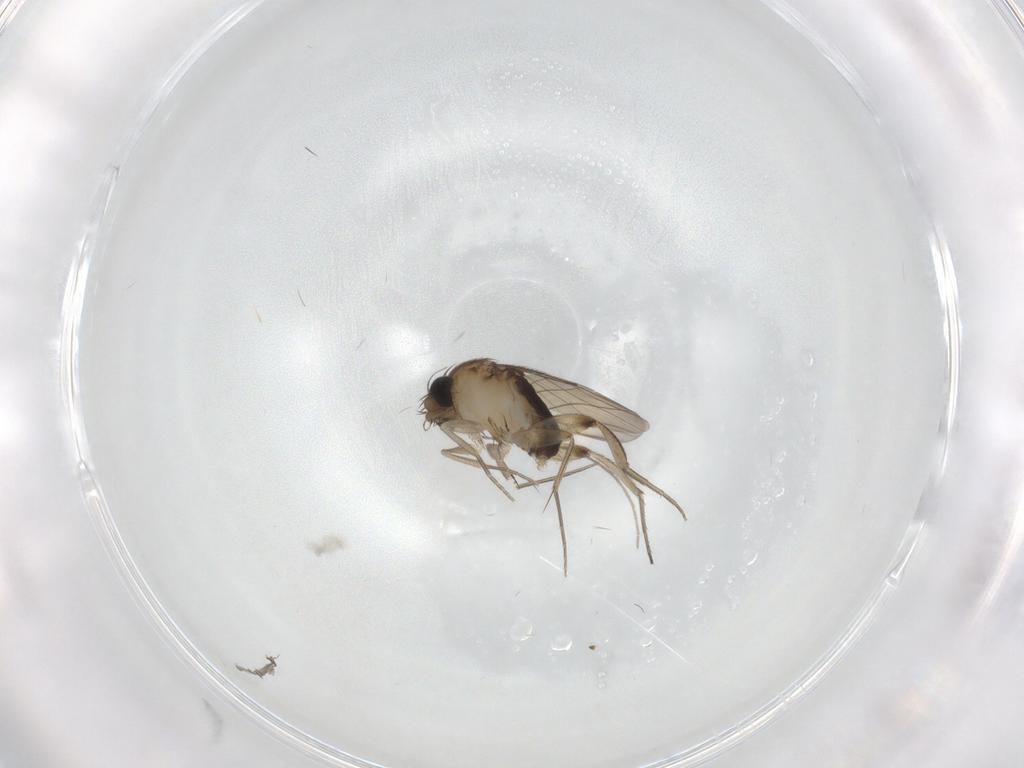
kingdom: Animalia
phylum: Arthropoda
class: Insecta
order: Diptera
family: Phoridae
